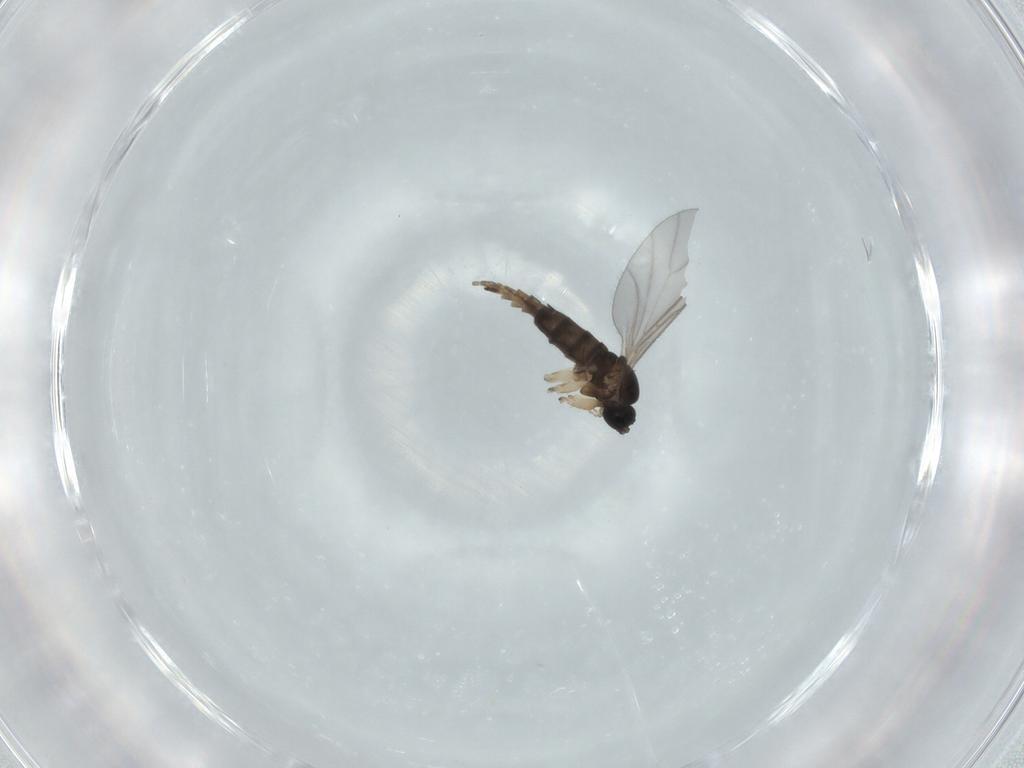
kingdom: Animalia
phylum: Arthropoda
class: Insecta
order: Diptera
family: Sciaridae
